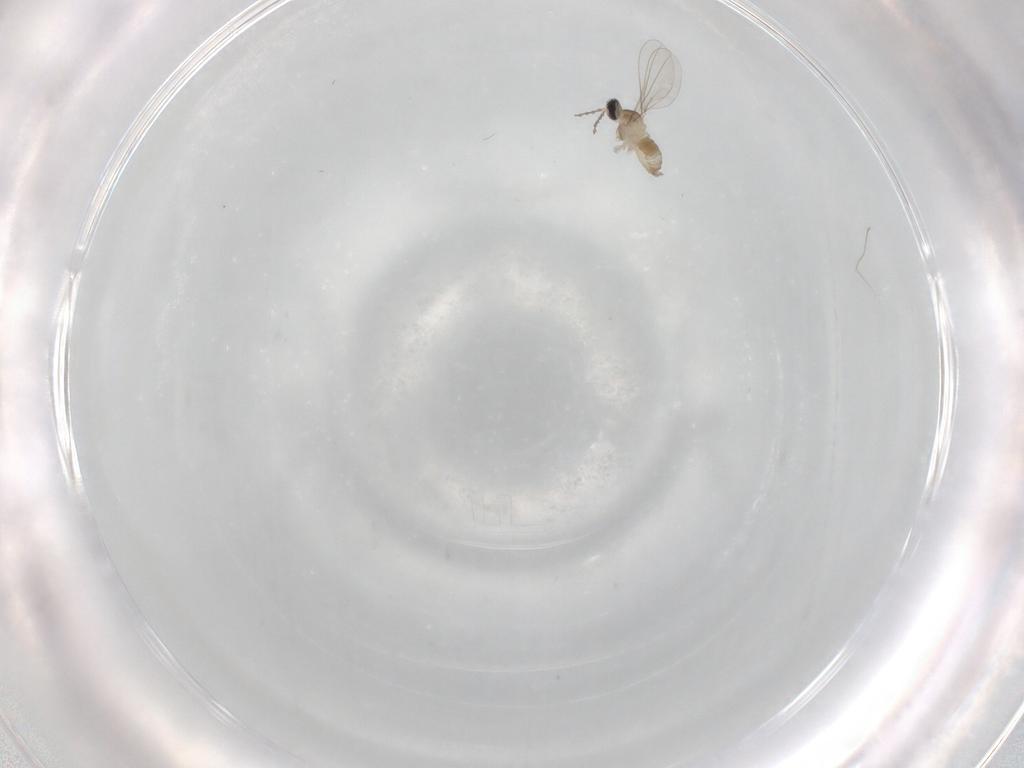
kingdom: Animalia
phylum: Arthropoda
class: Insecta
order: Diptera
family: Cecidomyiidae
